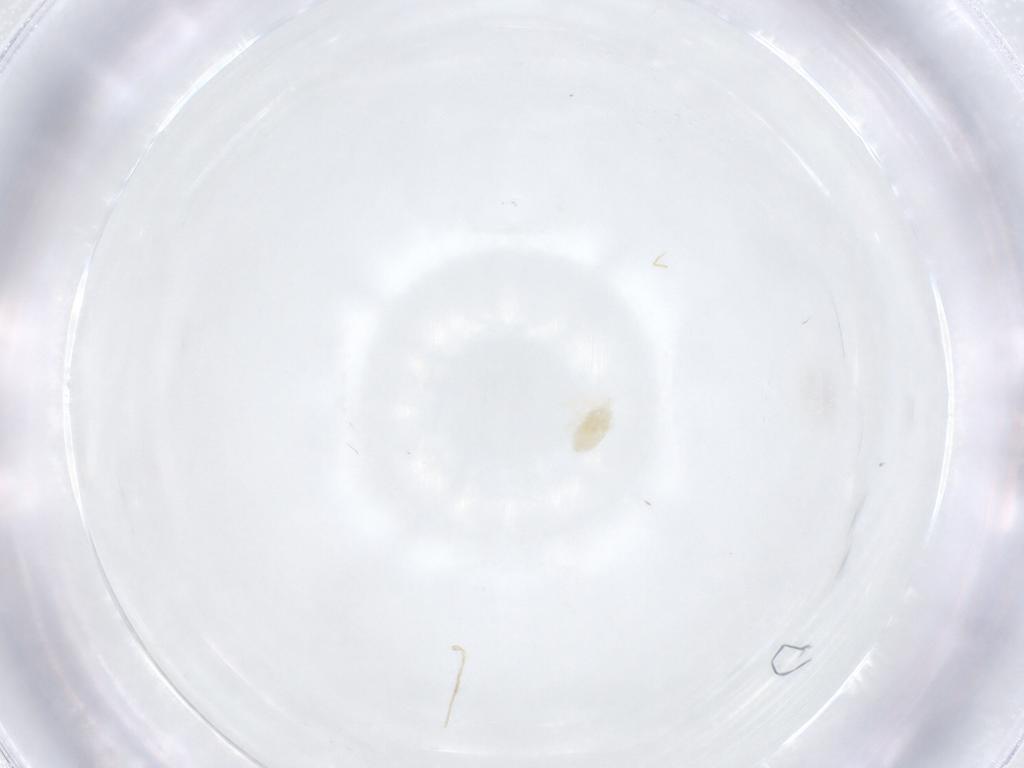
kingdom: Animalia
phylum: Arthropoda
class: Arachnida
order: Trombidiformes
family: Eupodidae
